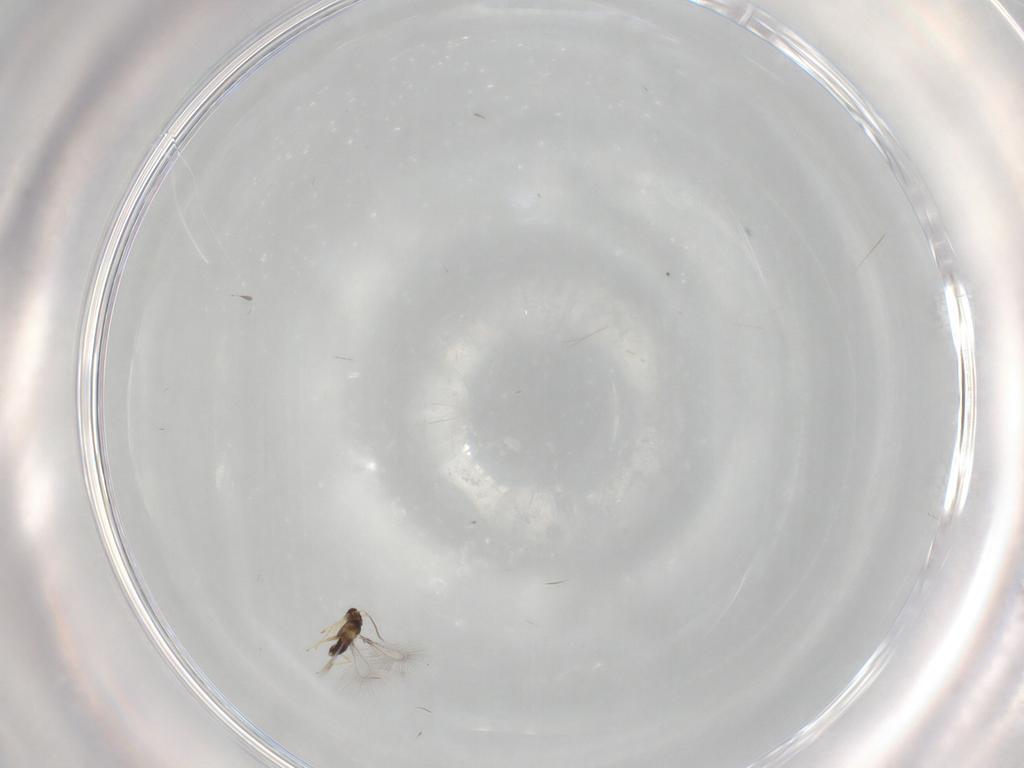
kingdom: Animalia
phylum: Arthropoda
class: Insecta
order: Hymenoptera
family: Mymaridae
